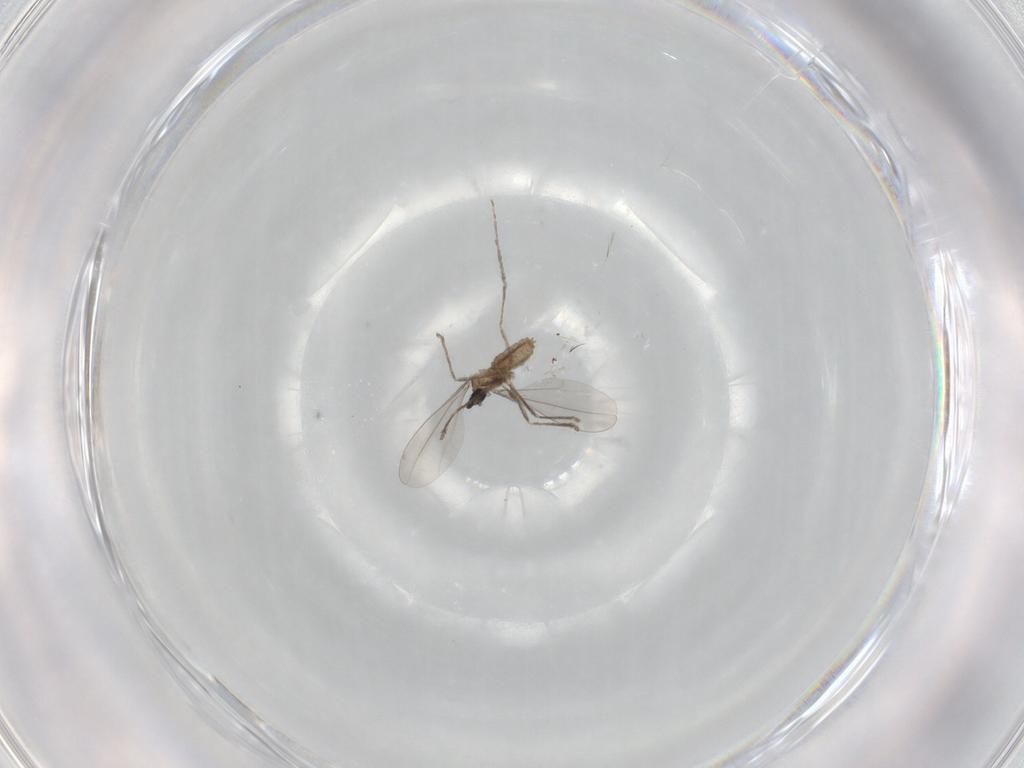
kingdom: Animalia
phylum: Arthropoda
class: Insecta
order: Diptera
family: Cecidomyiidae
